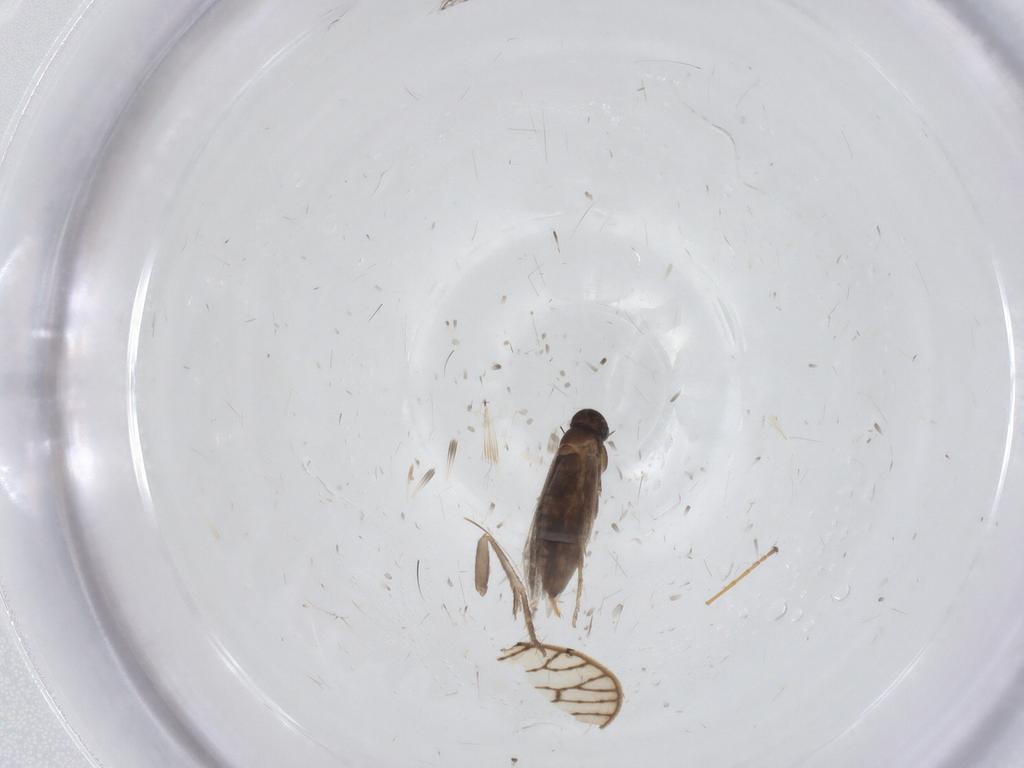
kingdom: Animalia
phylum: Arthropoda
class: Insecta
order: Lepidoptera
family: Elachistidae
